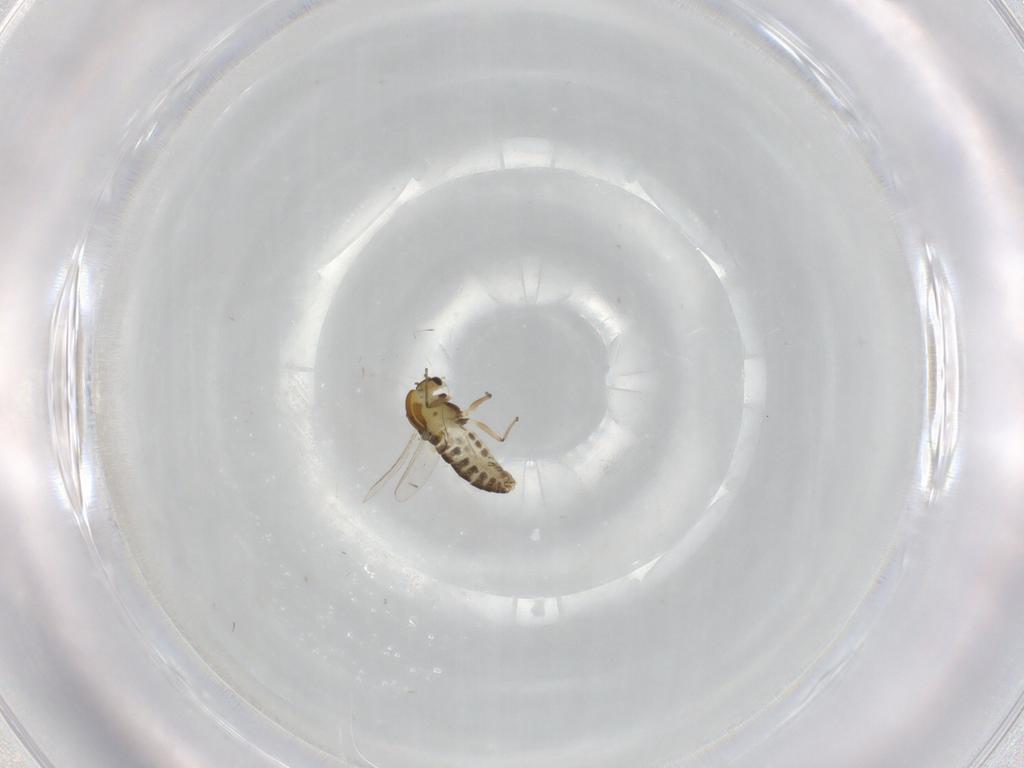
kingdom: Animalia
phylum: Arthropoda
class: Insecta
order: Diptera
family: Chironomidae
